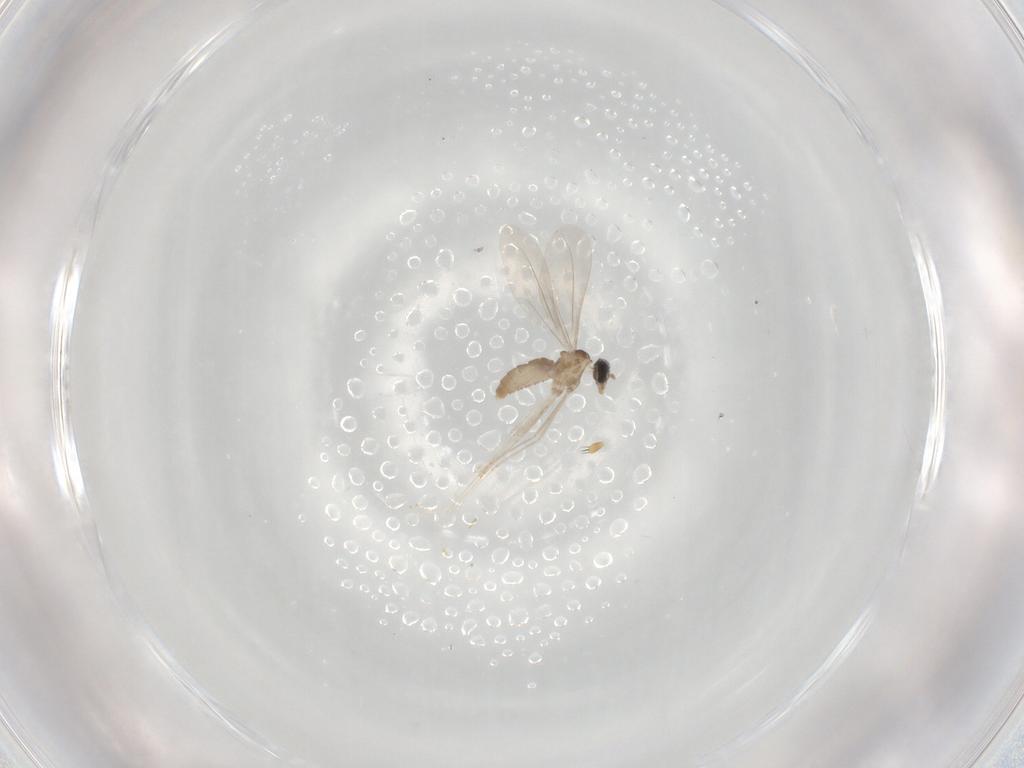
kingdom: Animalia
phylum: Arthropoda
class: Insecta
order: Diptera
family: Cecidomyiidae
